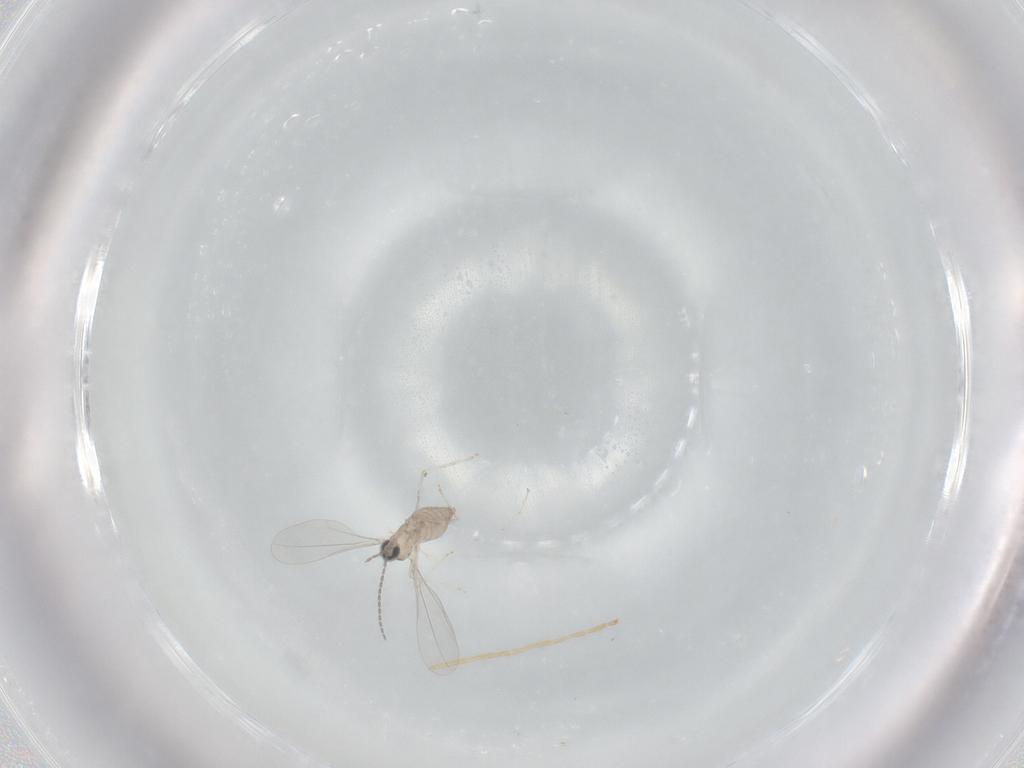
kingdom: Animalia
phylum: Arthropoda
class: Insecta
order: Diptera
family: Cecidomyiidae
